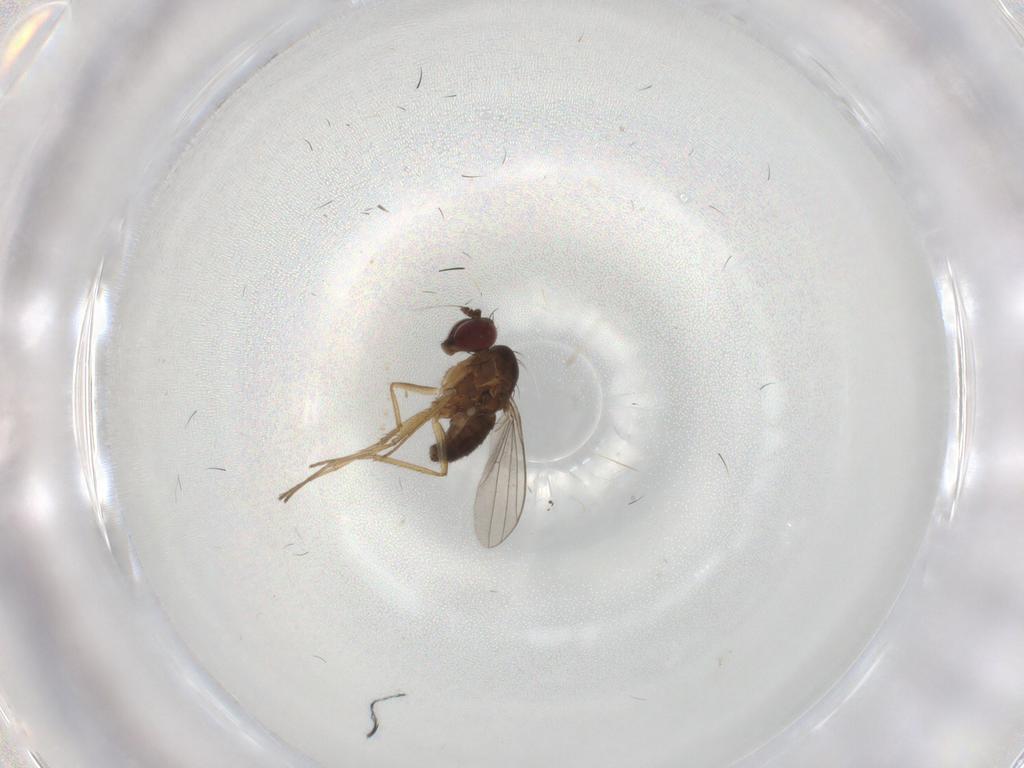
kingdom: Animalia
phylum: Arthropoda
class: Insecta
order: Diptera
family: Dolichopodidae
